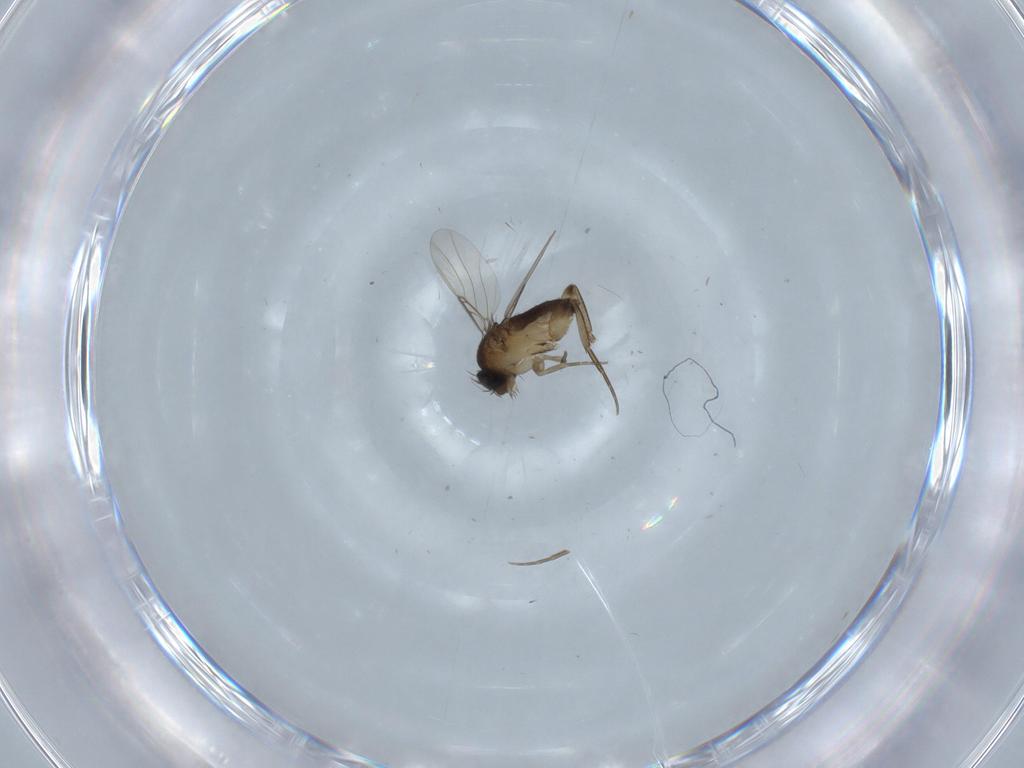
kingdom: Animalia
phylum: Arthropoda
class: Insecta
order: Diptera
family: Phoridae
